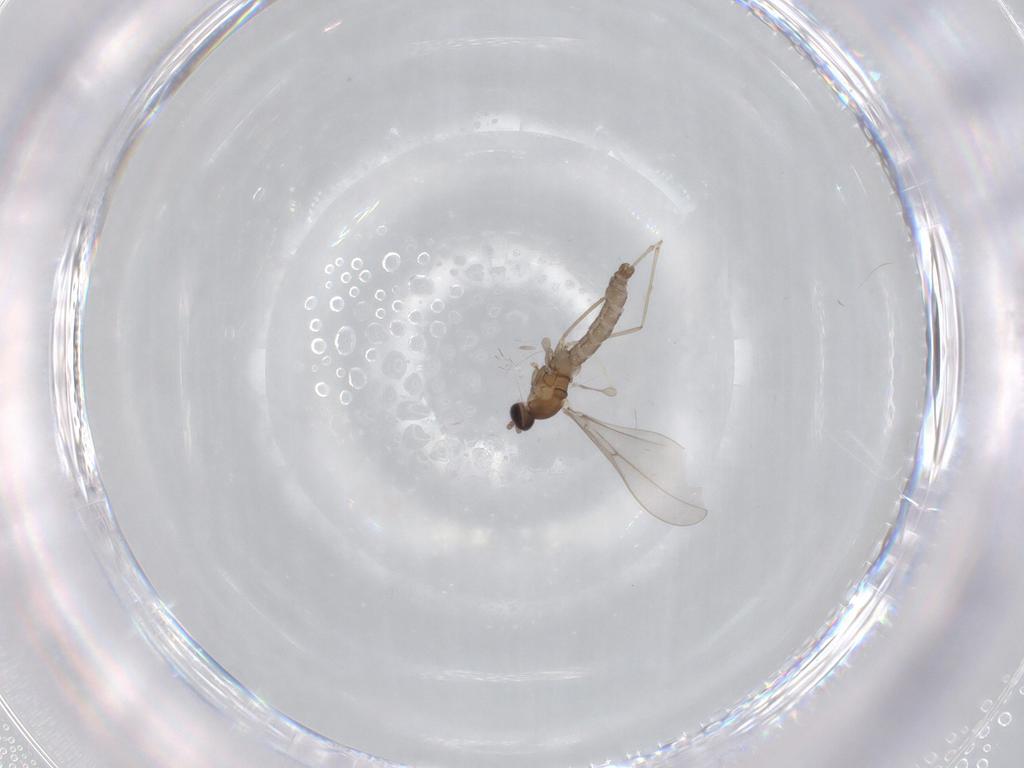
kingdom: Animalia
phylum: Arthropoda
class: Insecta
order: Diptera
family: Cecidomyiidae
